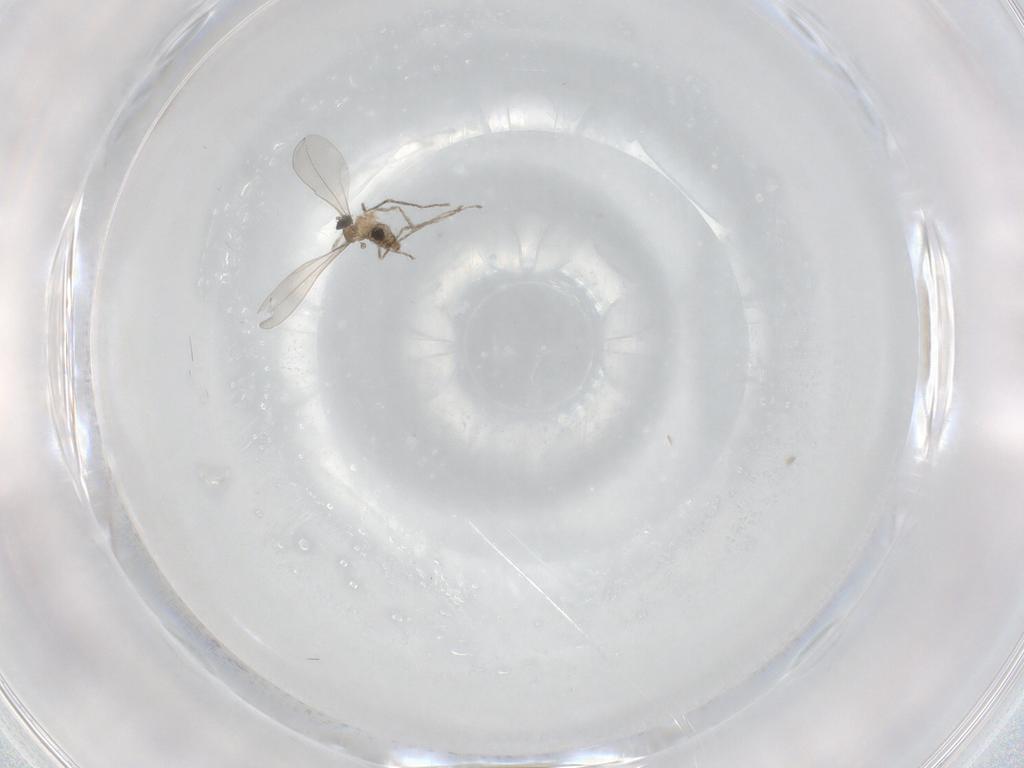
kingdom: Animalia
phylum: Arthropoda
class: Insecta
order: Diptera
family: Cecidomyiidae
